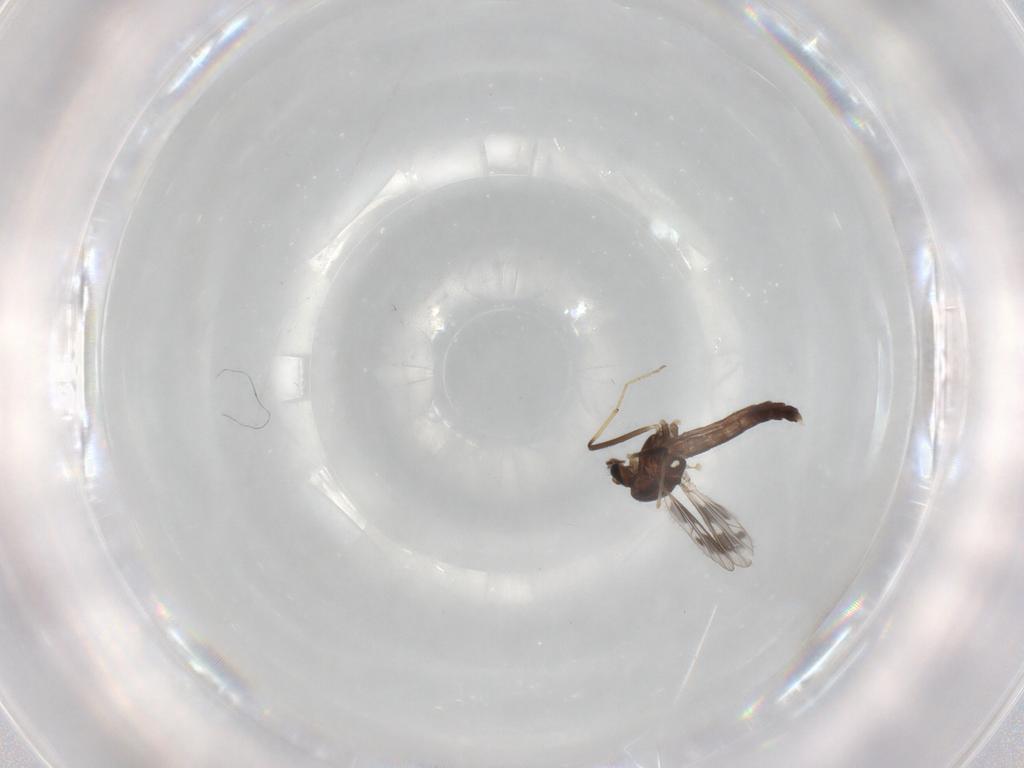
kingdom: Animalia
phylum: Arthropoda
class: Insecta
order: Diptera
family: Chironomidae
